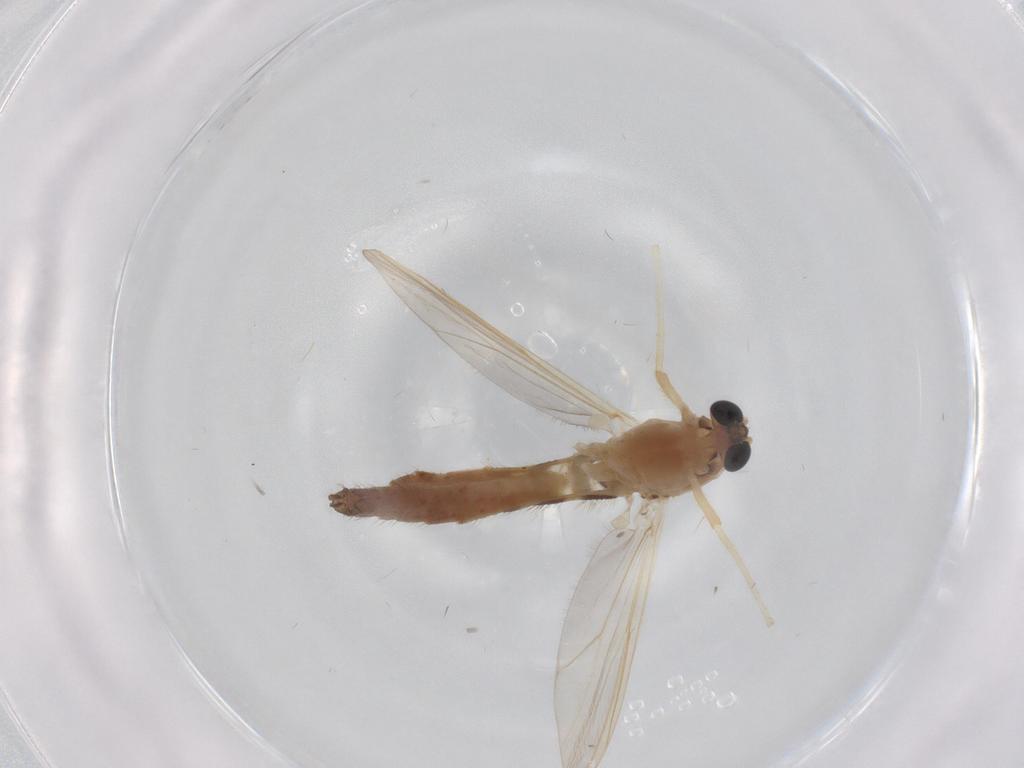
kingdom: Animalia
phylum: Arthropoda
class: Insecta
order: Diptera
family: Chironomidae
